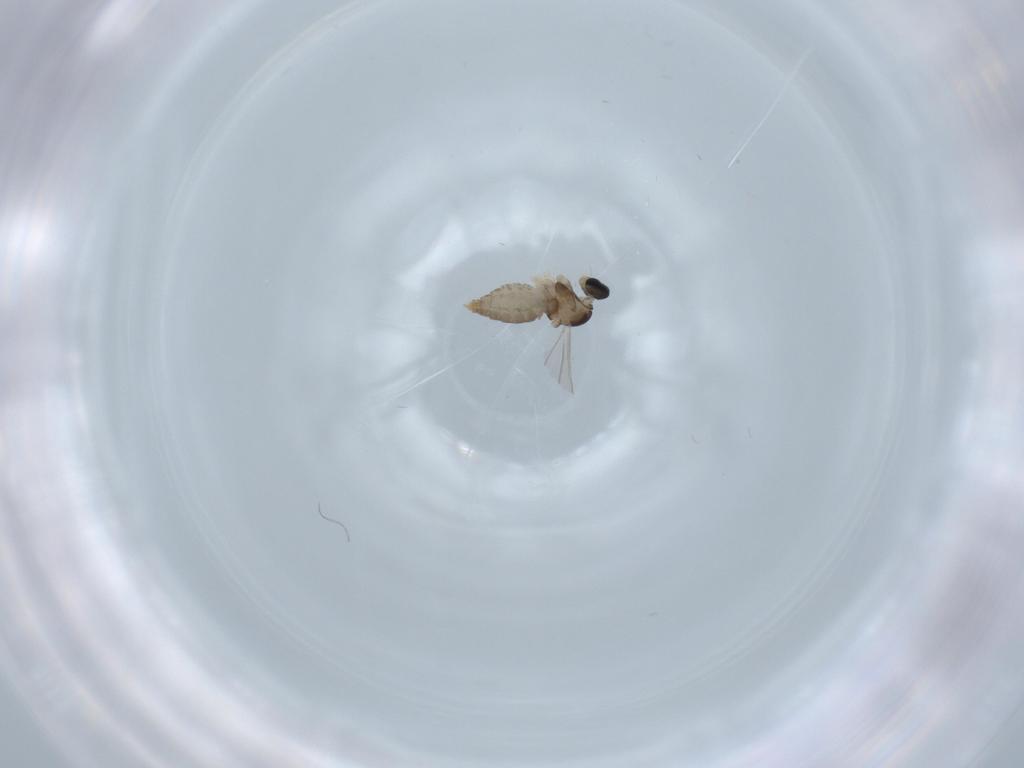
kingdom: Animalia
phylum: Arthropoda
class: Insecta
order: Diptera
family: Cecidomyiidae
